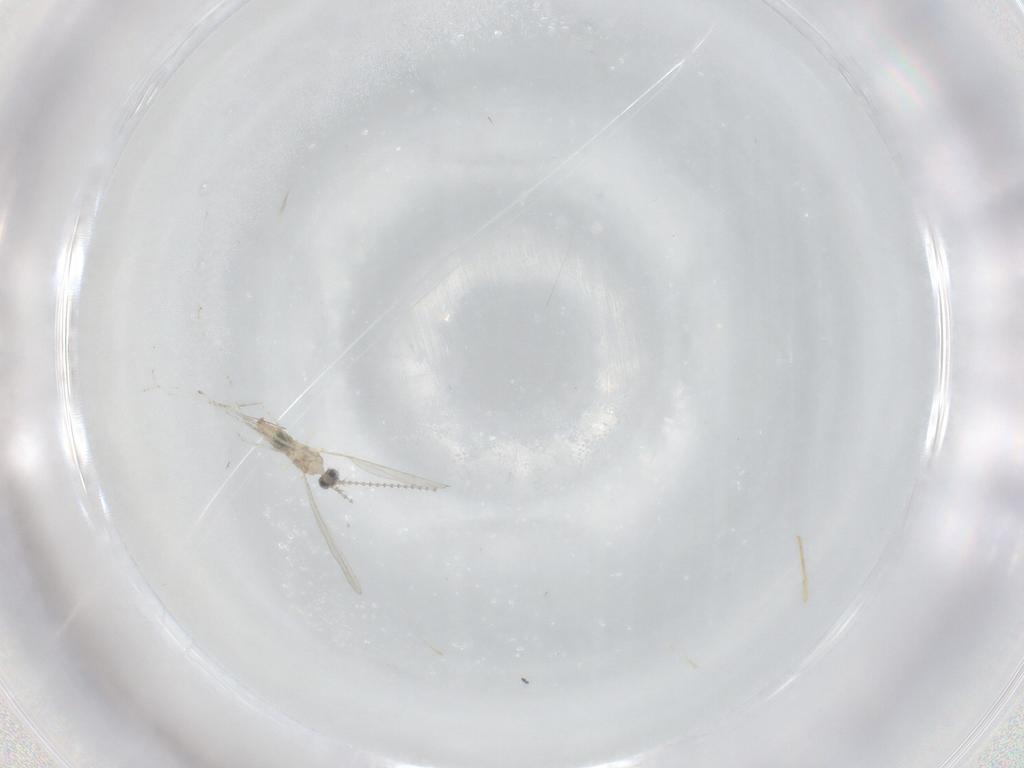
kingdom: Animalia
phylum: Arthropoda
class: Insecta
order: Diptera
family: Cecidomyiidae
